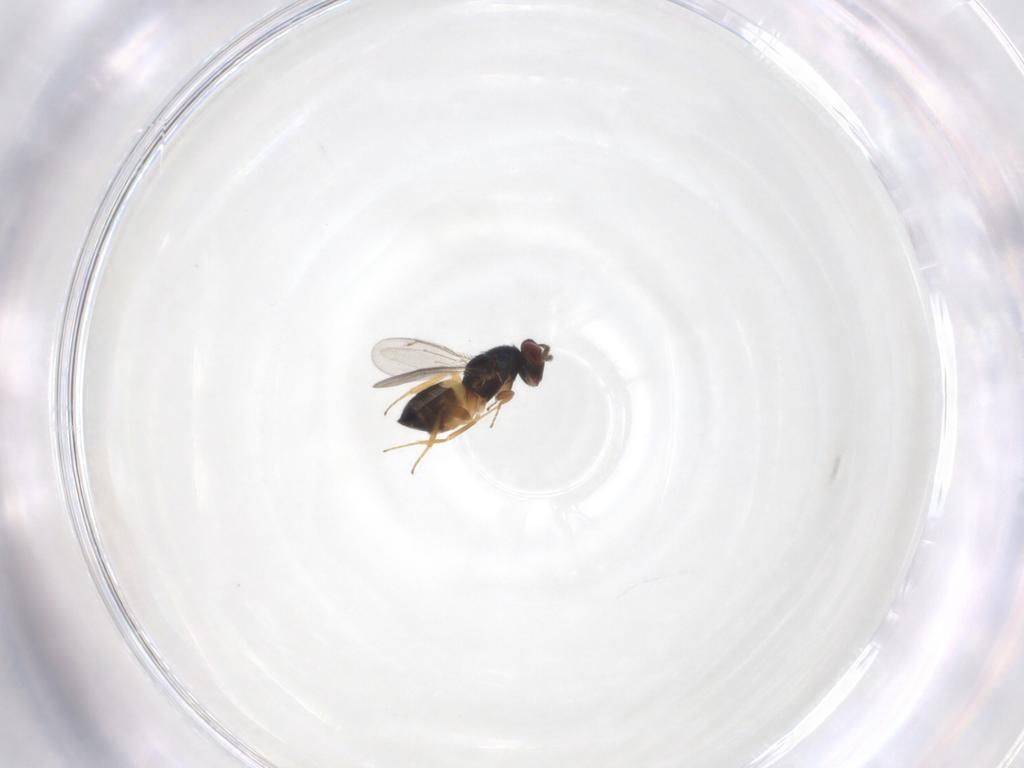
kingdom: Animalia
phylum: Arthropoda
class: Insecta
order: Hymenoptera
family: Eulophidae
